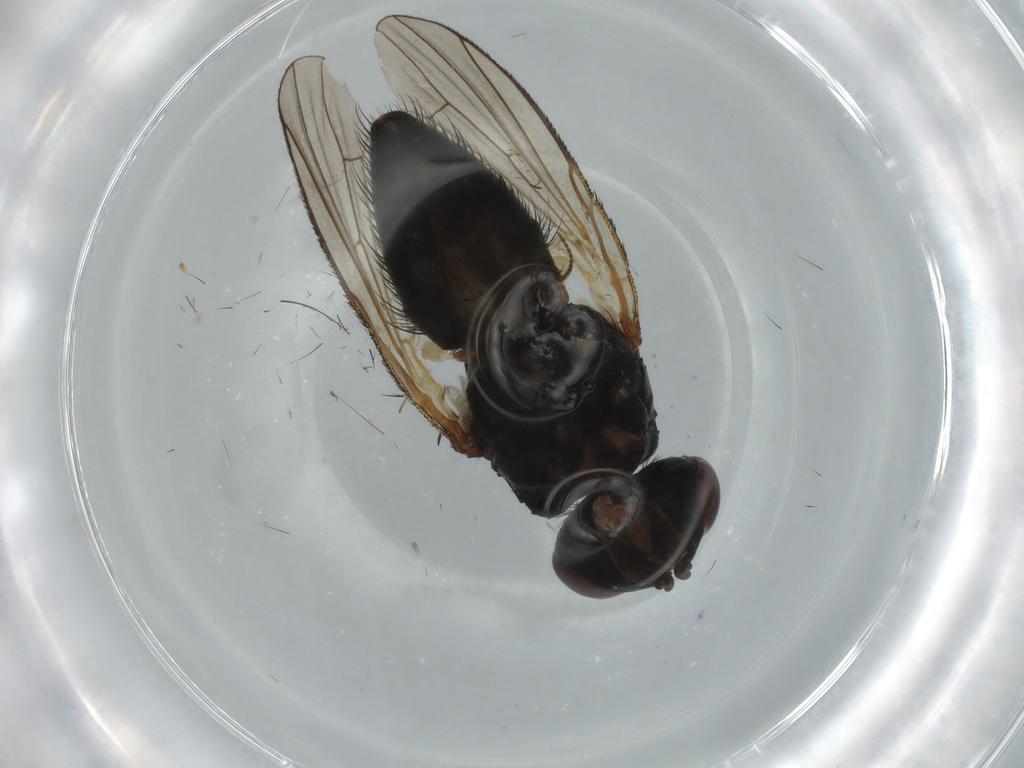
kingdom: Animalia
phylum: Arthropoda
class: Insecta
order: Diptera
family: Anthomyiidae
